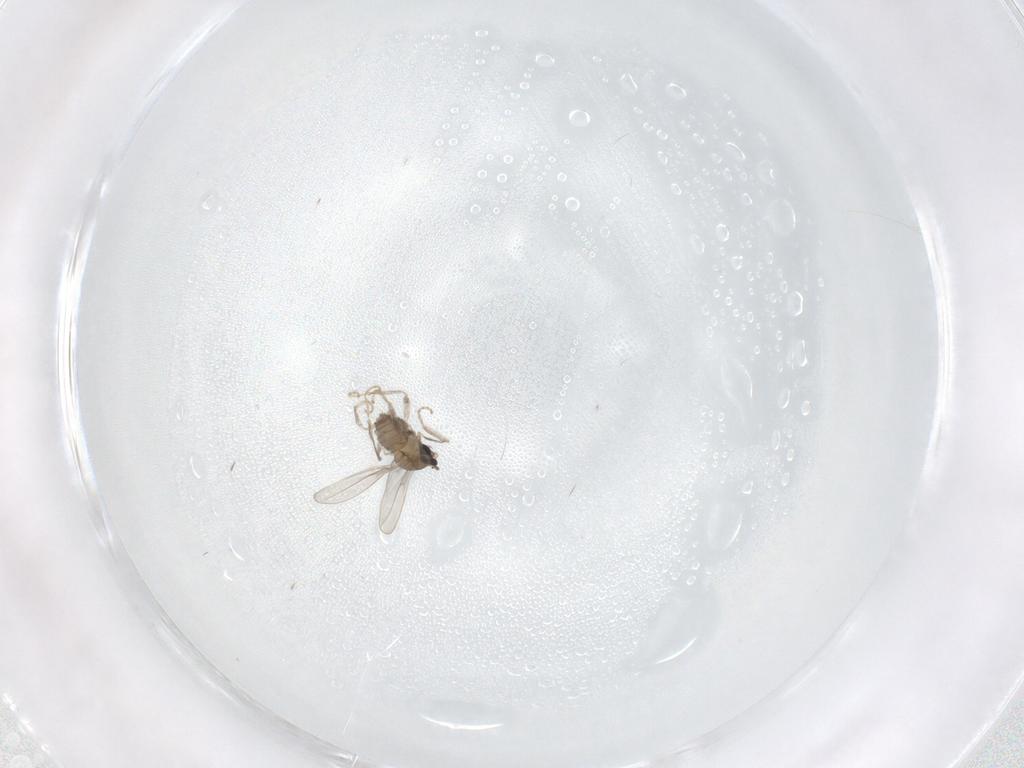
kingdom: Animalia
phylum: Arthropoda
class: Insecta
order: Diptera
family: Cecidomyiidae
